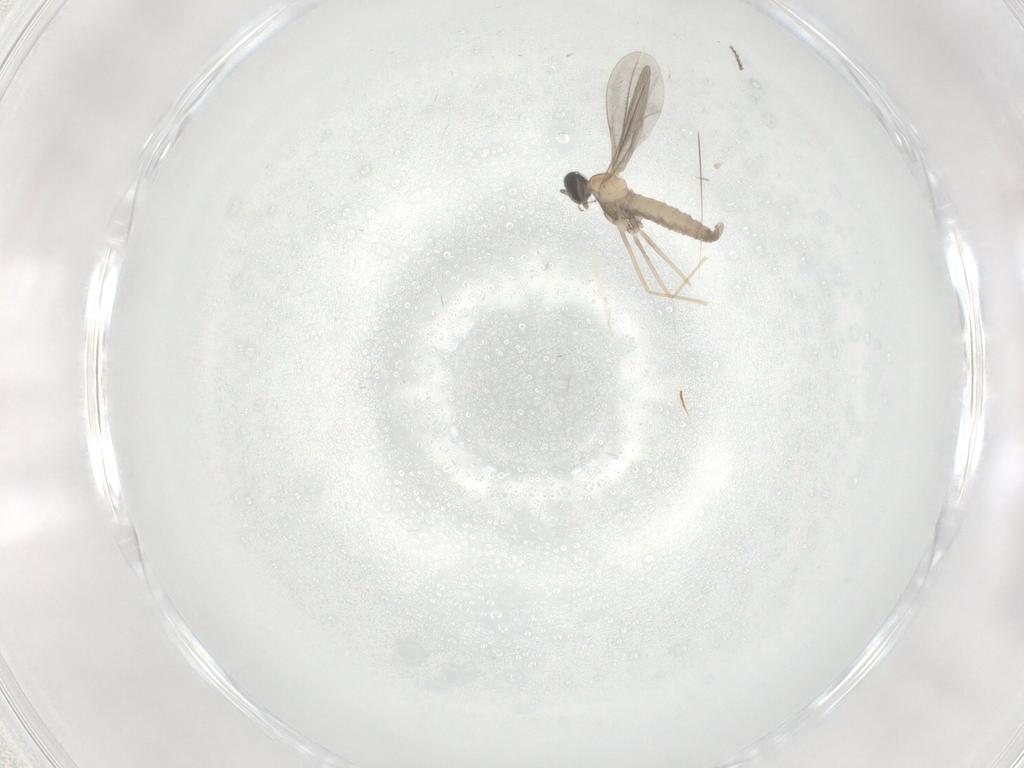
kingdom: Animalia
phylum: Arthropoda
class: Insecta
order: Diptera
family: Cecidomyiidae
